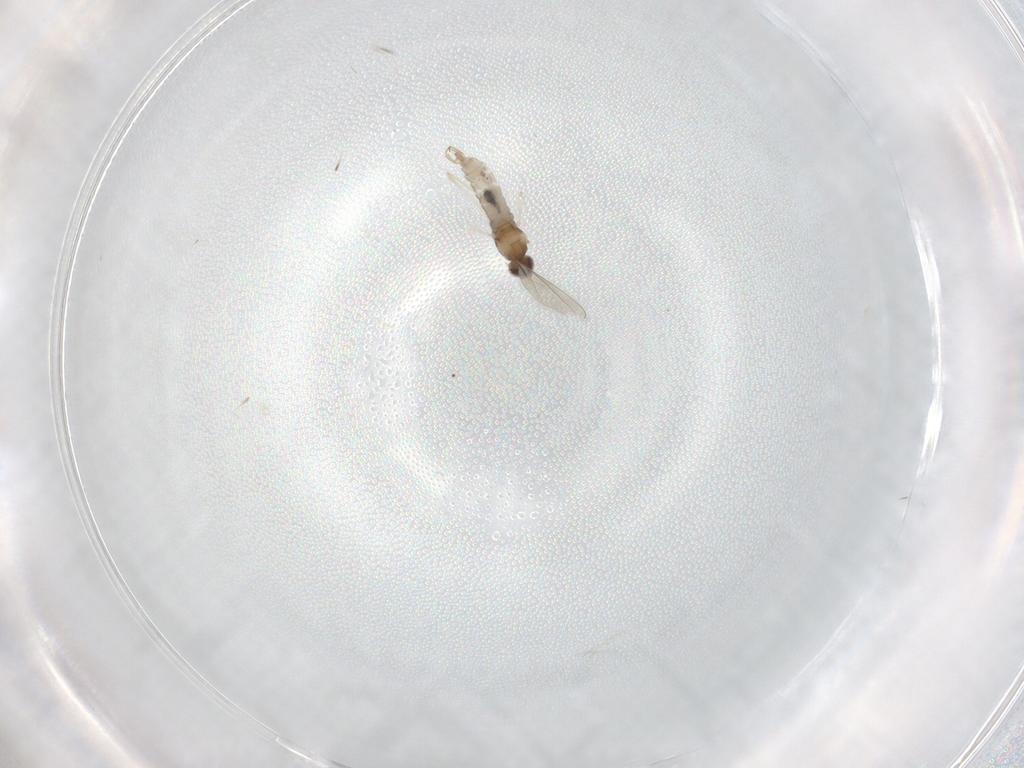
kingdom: Animalia
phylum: Arthropoda
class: Insecta
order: Diptera
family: Cecidomyiidae
